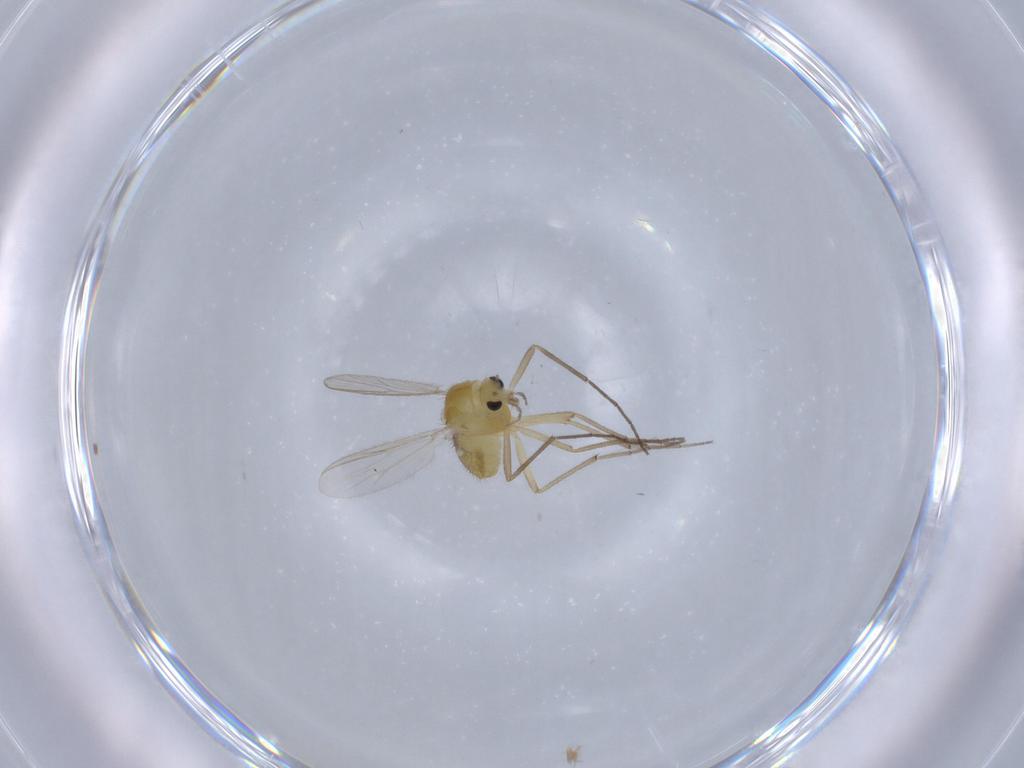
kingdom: Animalia
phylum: Arthropoda
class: Insecta
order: Diptera
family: Chironomidae
